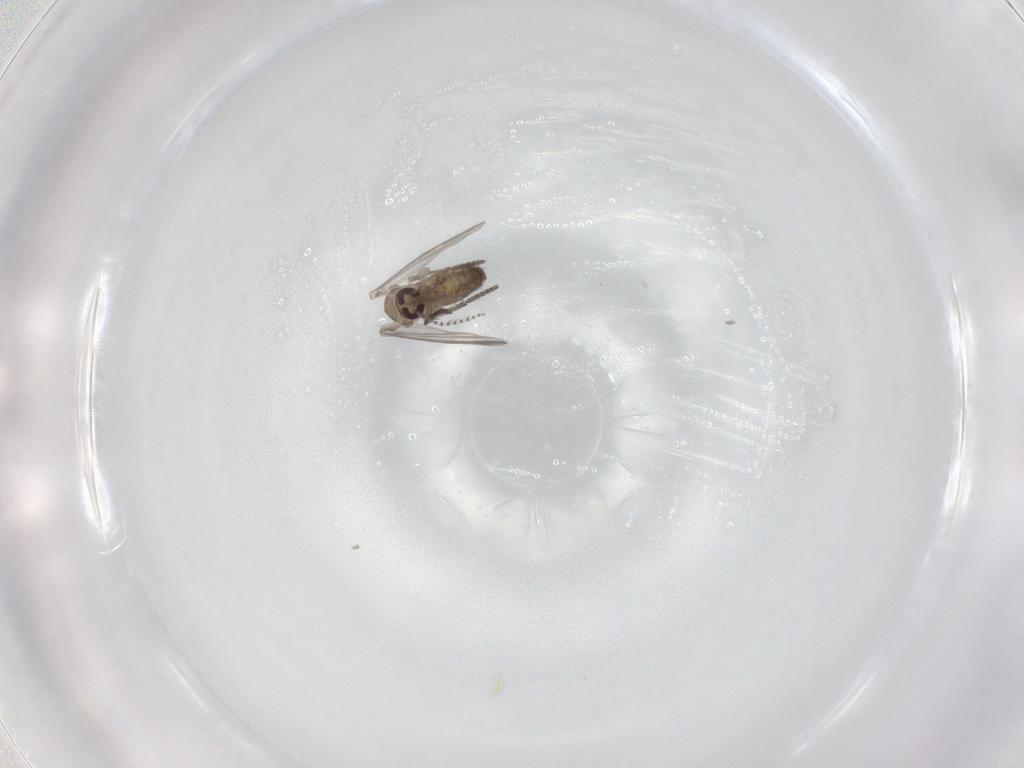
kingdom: Animalia
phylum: Arthropoda
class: Insecta
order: Diptera
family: Psychodidae
